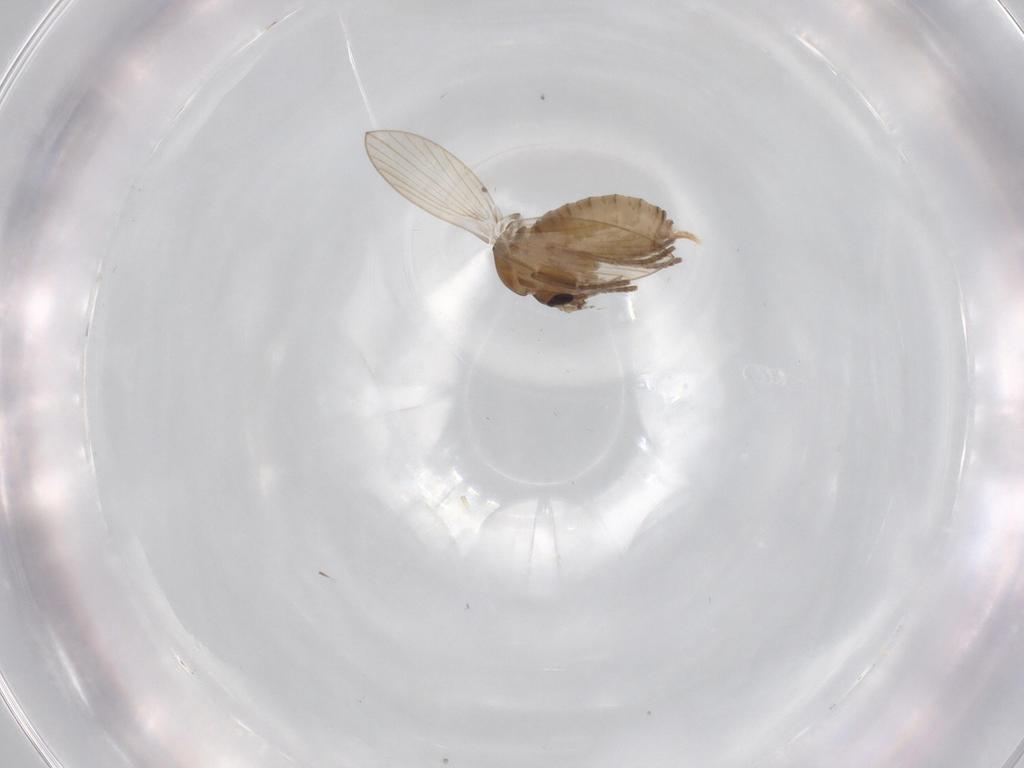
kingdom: Animalia
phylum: Arthropoda
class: Insecta
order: Diptera
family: Psychodidae
